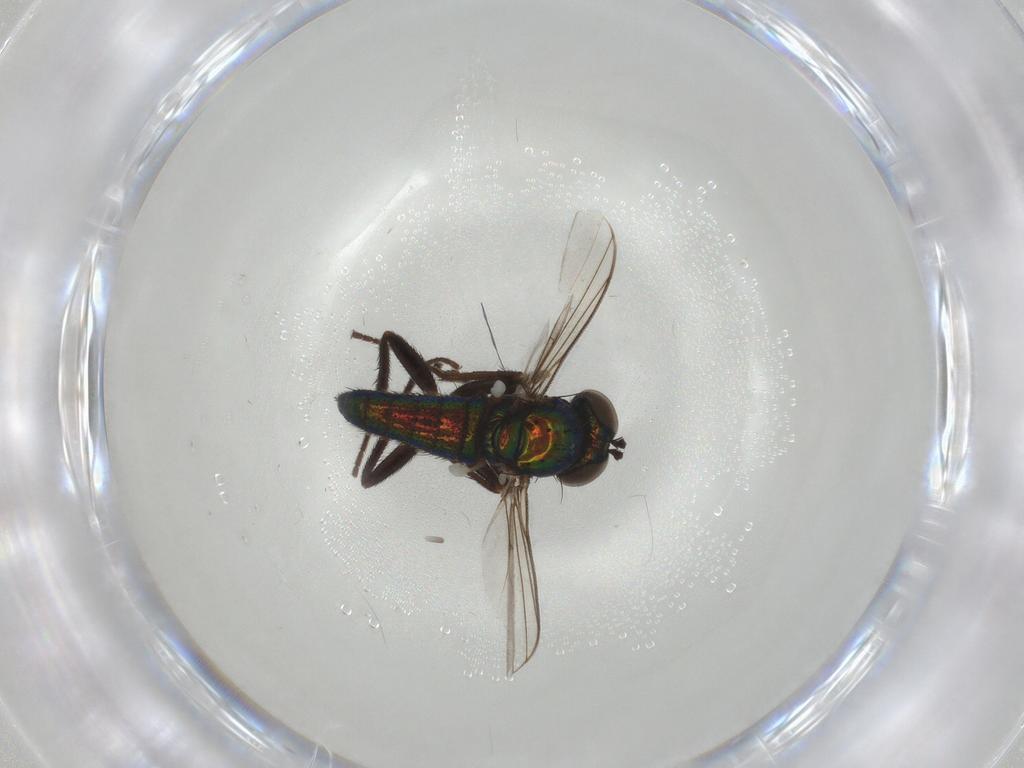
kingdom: Animalia
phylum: Arthropoda
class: Insecta
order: Diptera
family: Dolichopodidae
